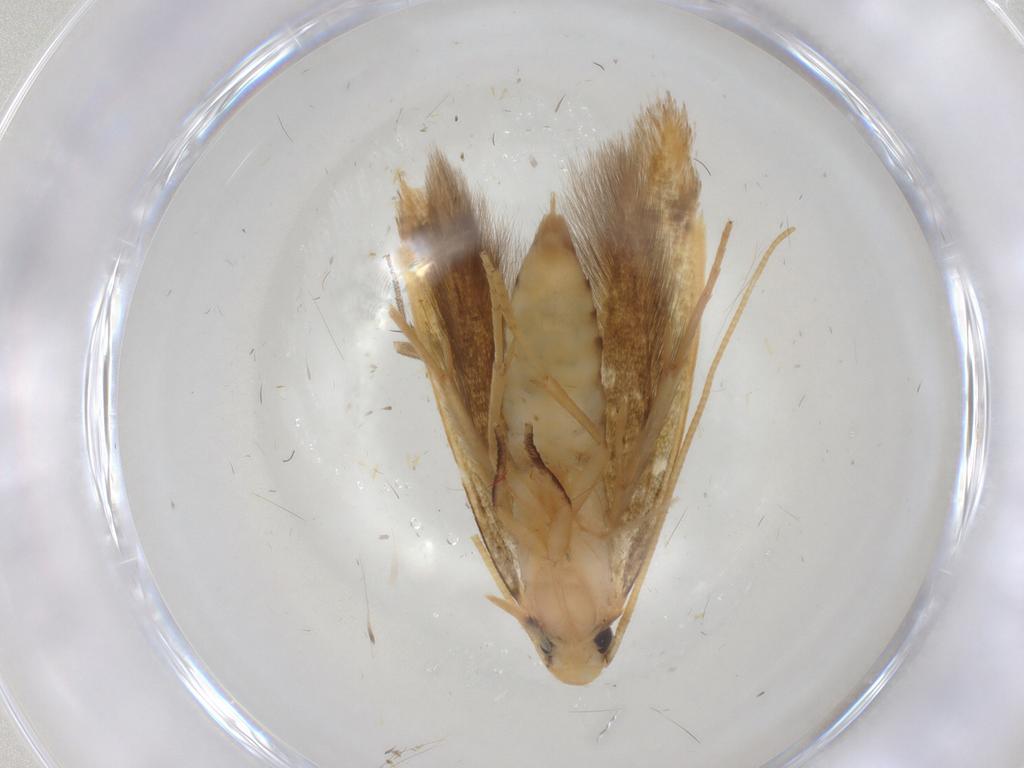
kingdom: Animalia
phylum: Arthropoda
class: Insecta
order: Lepidoptera
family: Tineidae
